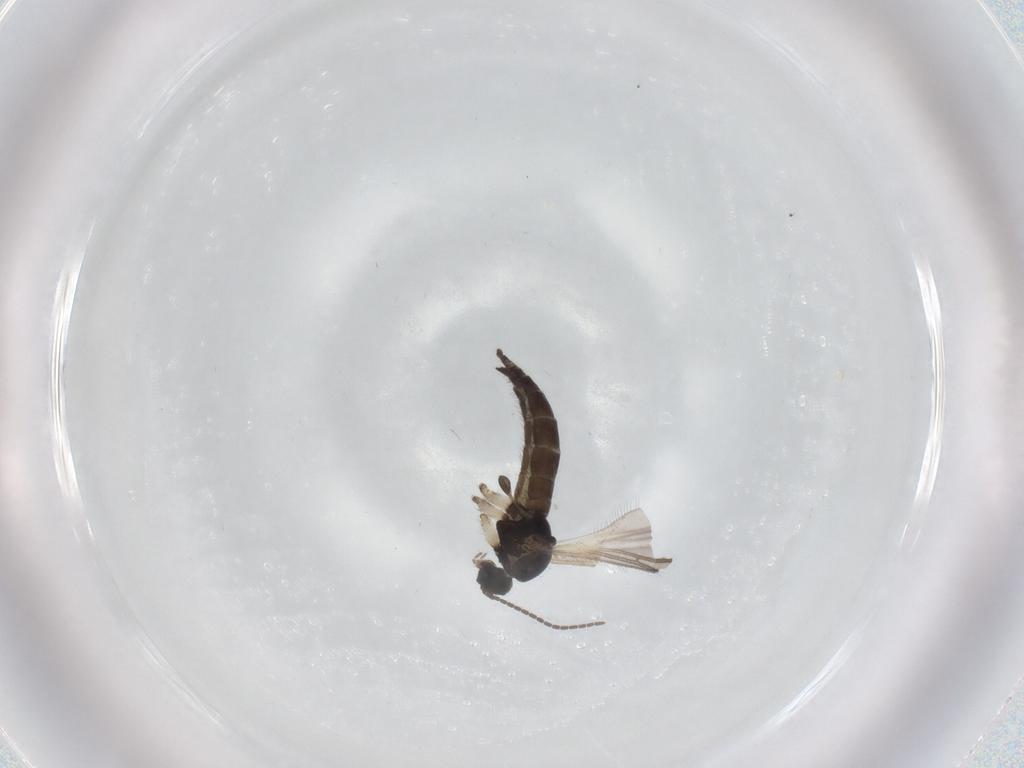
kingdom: Animalia
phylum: Arthropoda
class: Insecta
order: Diptera
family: Sciaridae
